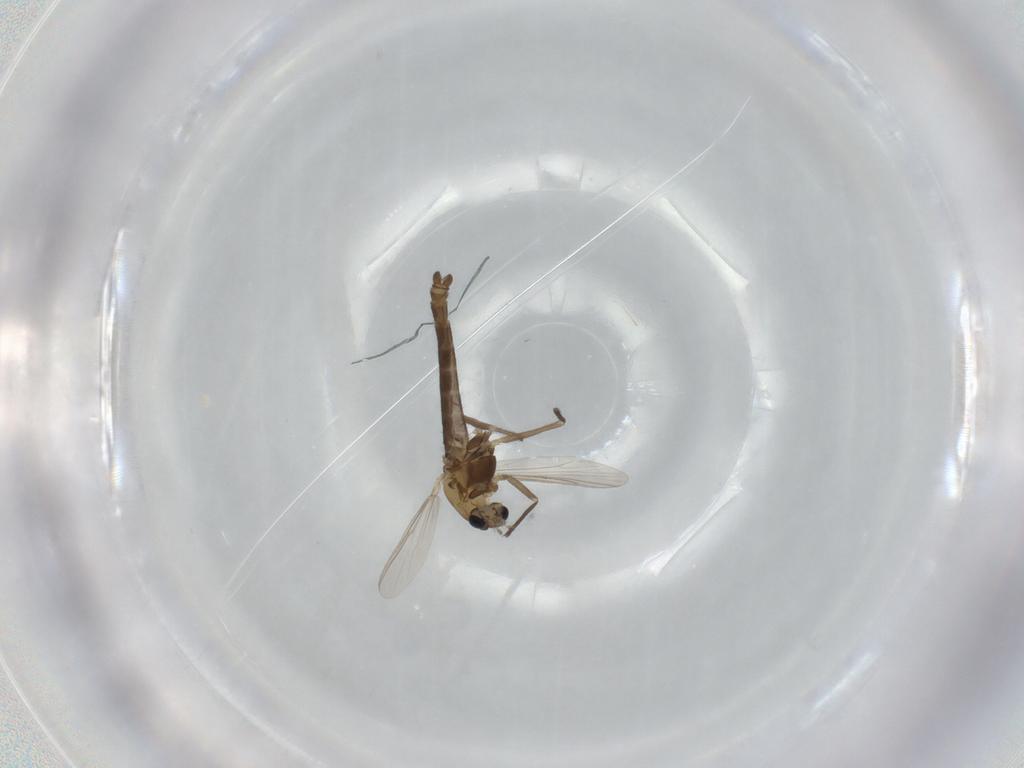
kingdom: Animalia
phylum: Arthropoda
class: Insecta
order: Diptera
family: Chironomidae
